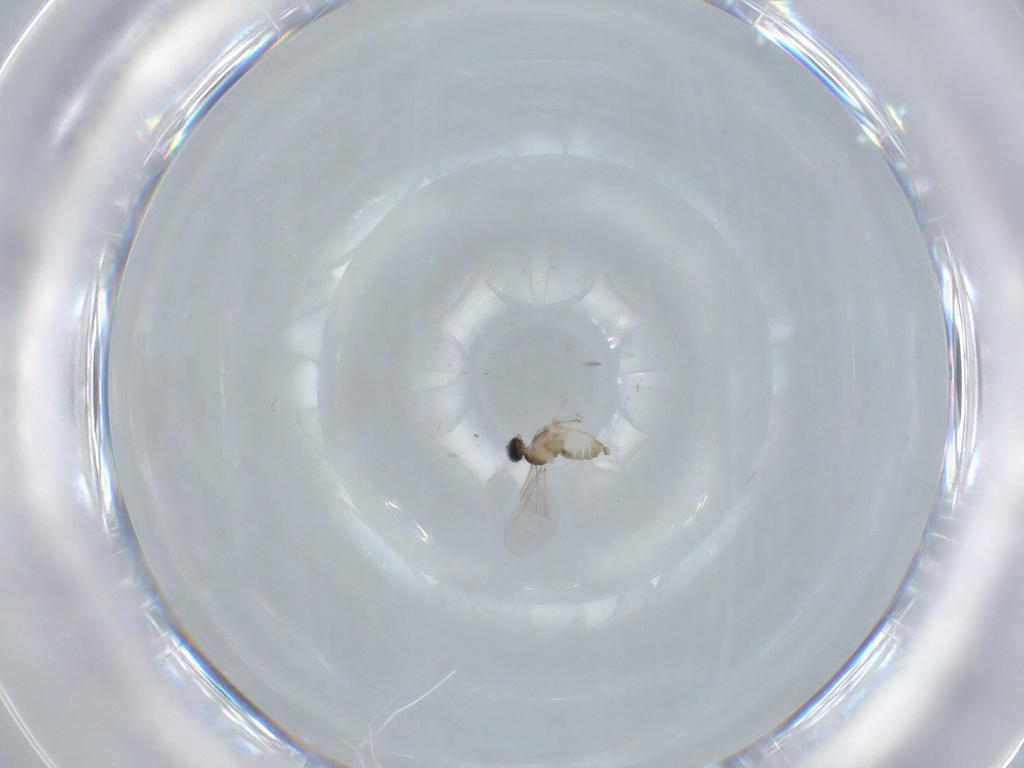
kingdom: Animalia
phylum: Arthropoda
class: Insecta
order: Diptera
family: Cecidomyiidae
